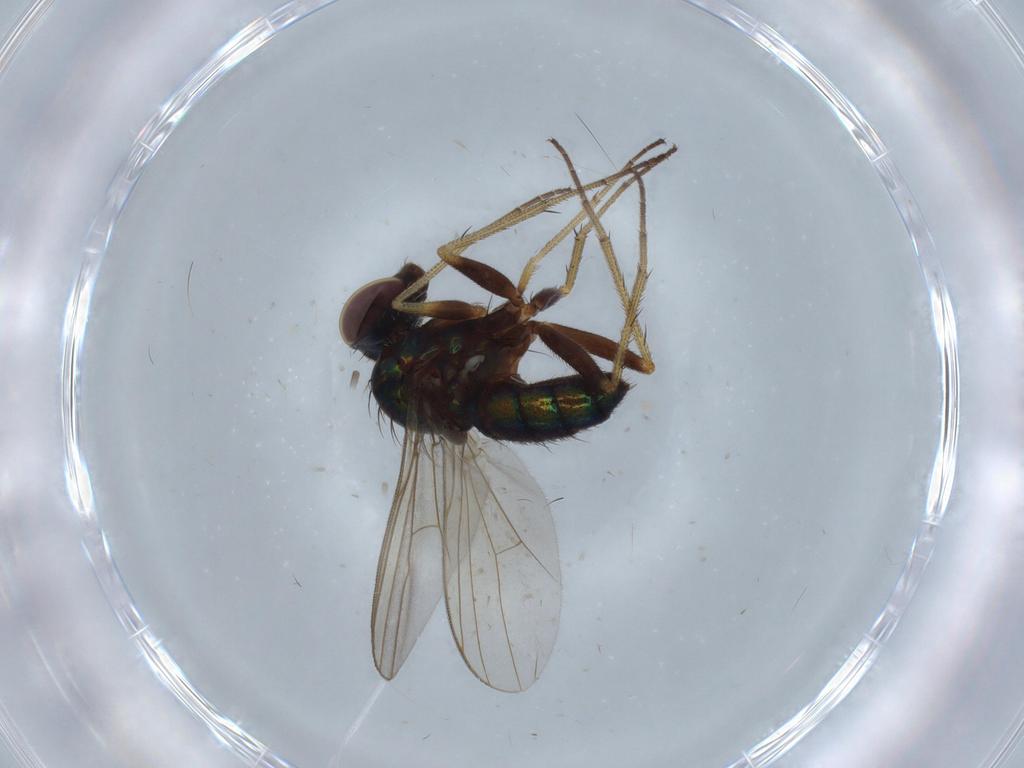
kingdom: Animalia
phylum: Arthropoda
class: Insecta
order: Diptera
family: Dolichopodidae
